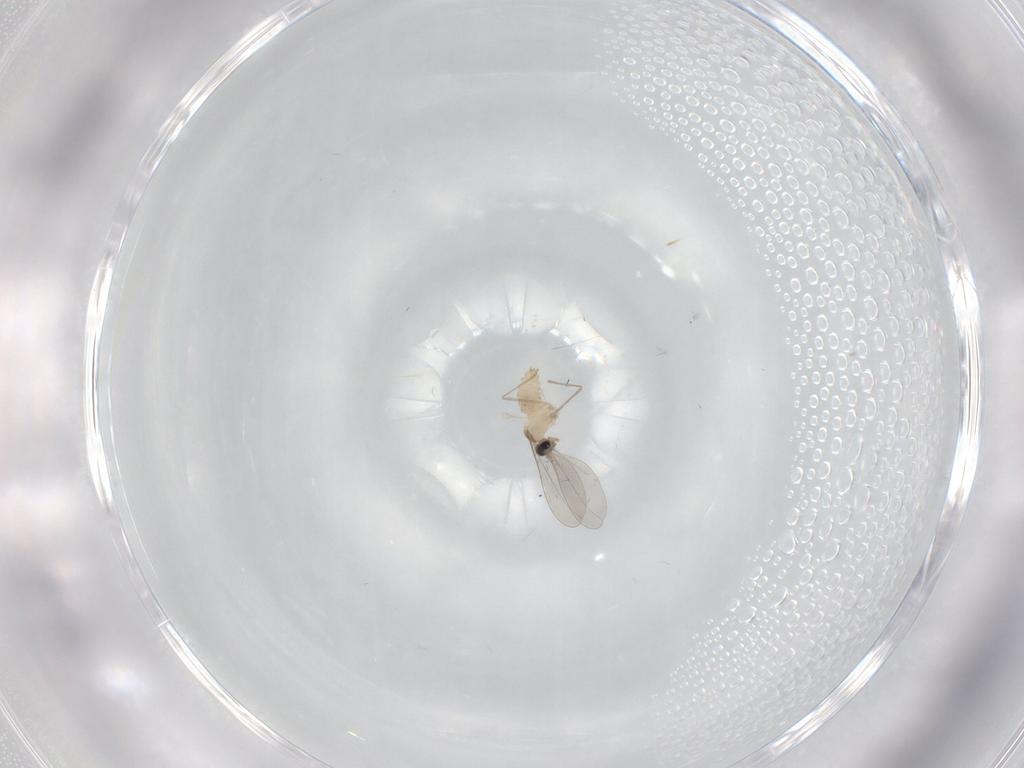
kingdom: Animalia
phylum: Arthropoda
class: Insecta
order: Diptera
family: Cecidomyiidae
